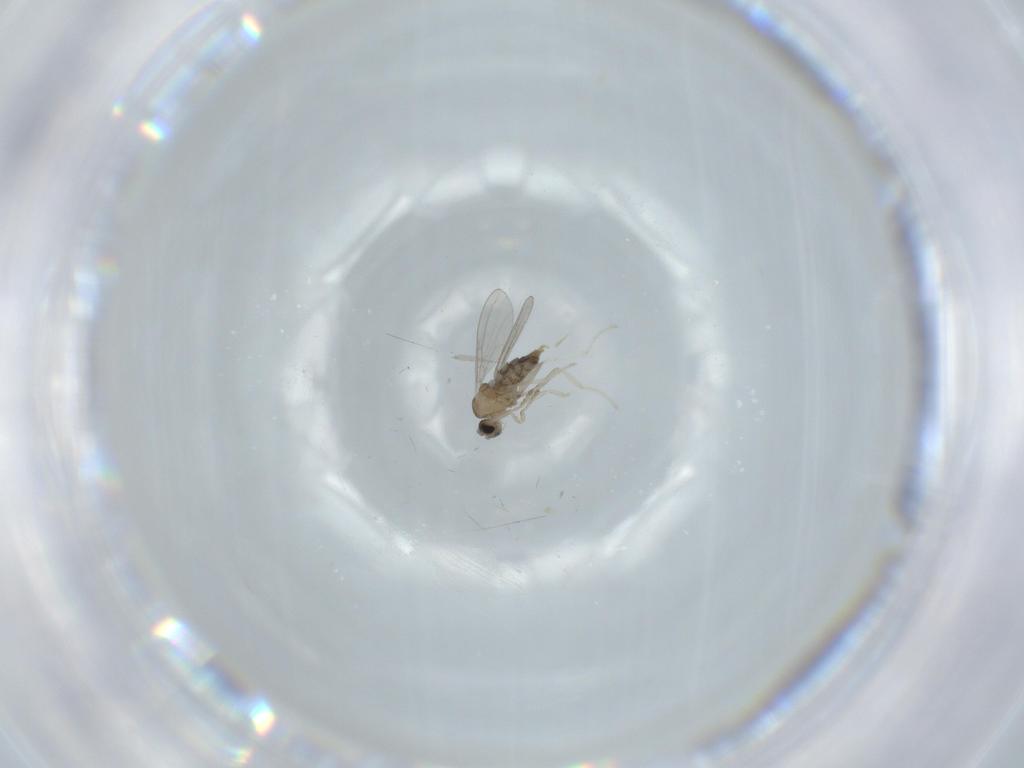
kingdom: Animalia
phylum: Arthropoda
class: Insecta
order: Diptera
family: Cecidomyiidae
